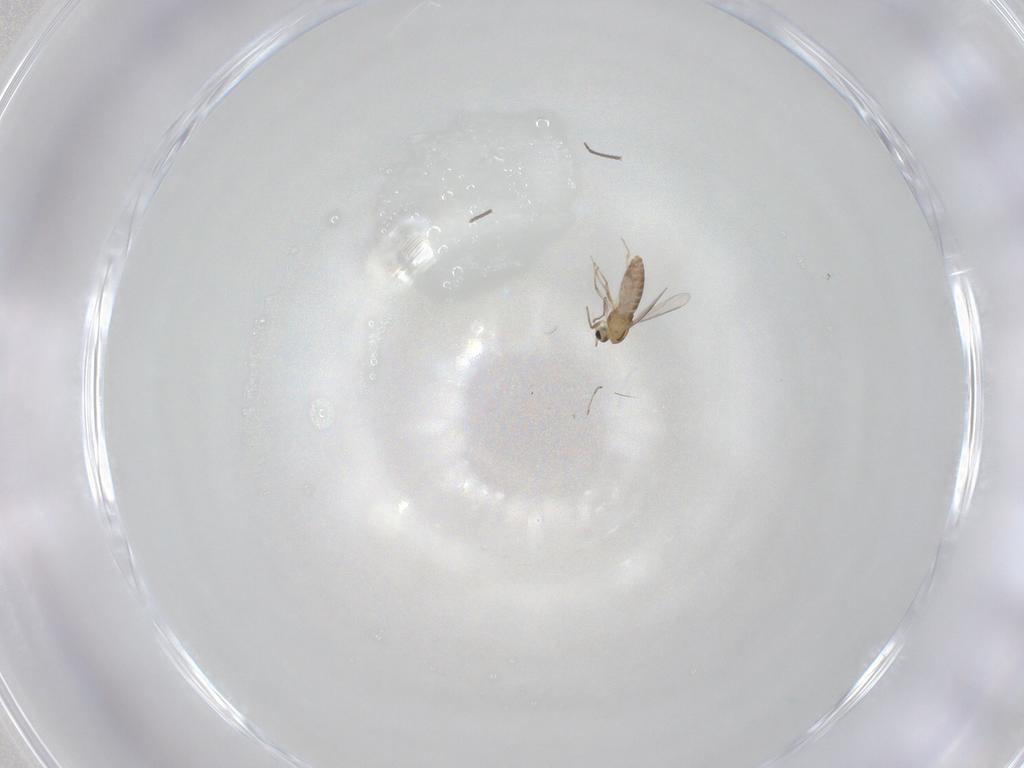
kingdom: Animalia
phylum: Arthropoda
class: Insecta
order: Diptera
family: Chironomidae
